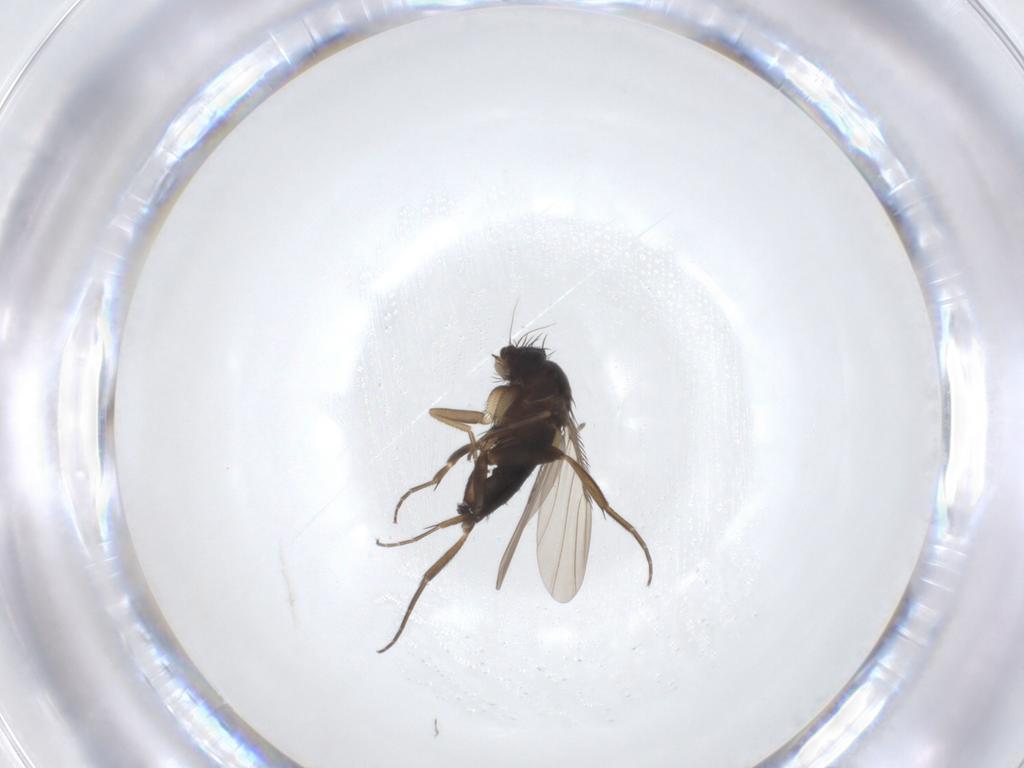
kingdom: Animalia
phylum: Arthropoda
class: Insecta
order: Diptera
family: Phoridae
